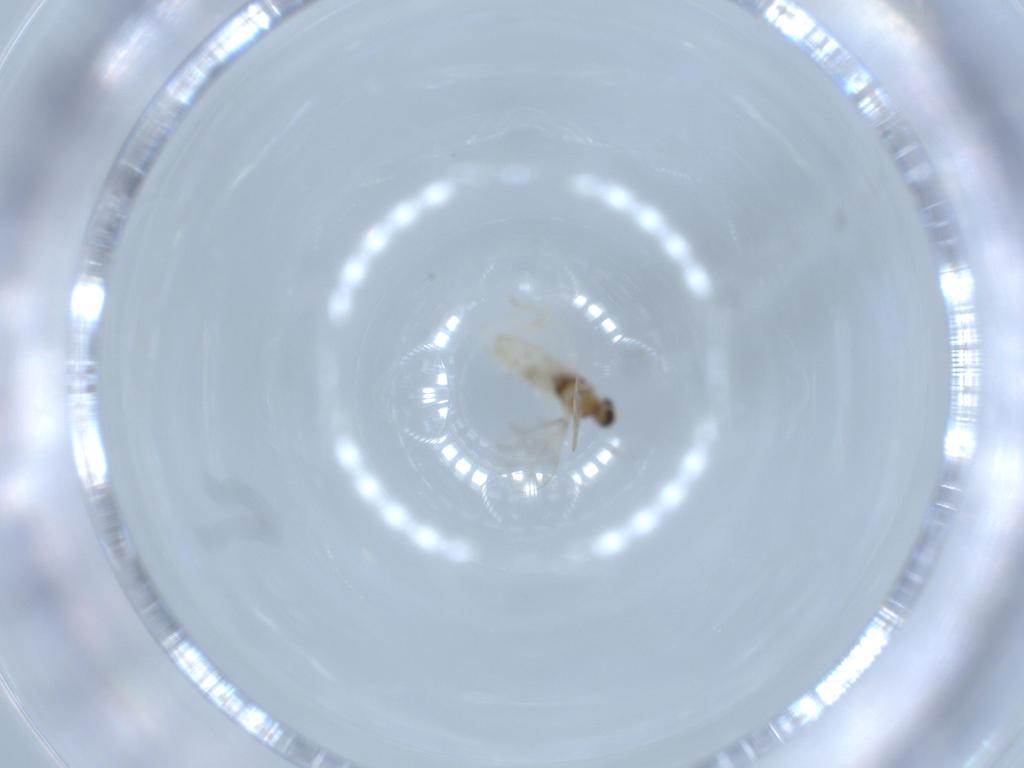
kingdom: Animalia
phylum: Arthropoda
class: Insecta
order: Diptera
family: Cecidomyiidae
